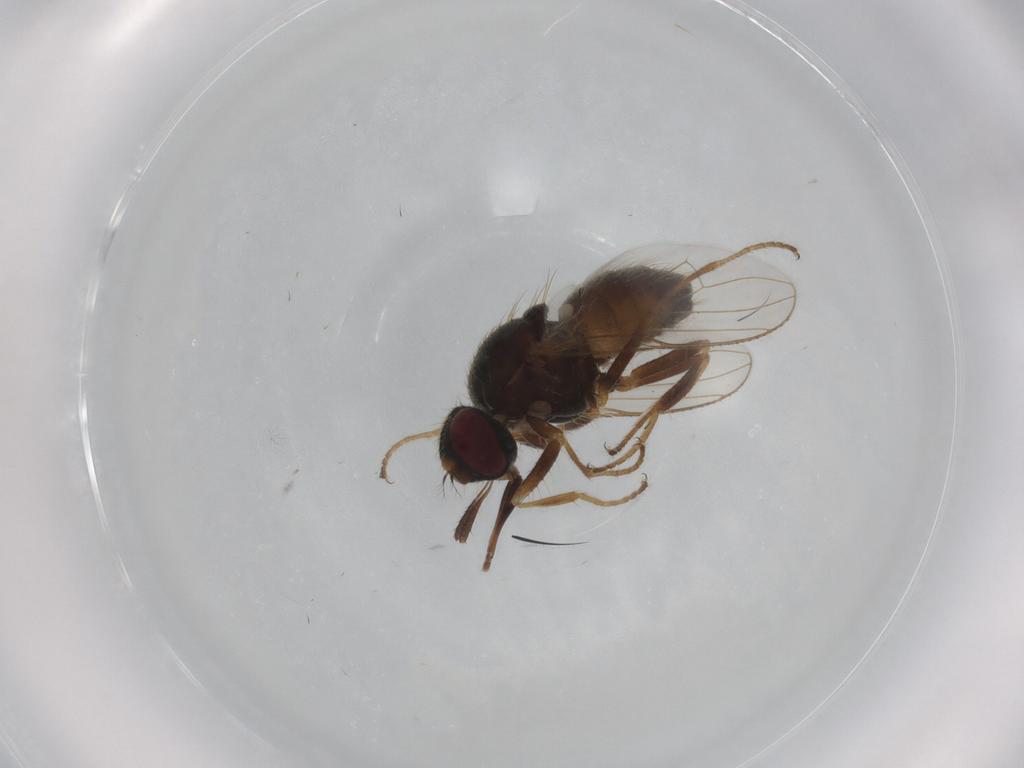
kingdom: Animalia
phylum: Arthropoda
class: Insecta
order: Diptera
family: Muscidae
